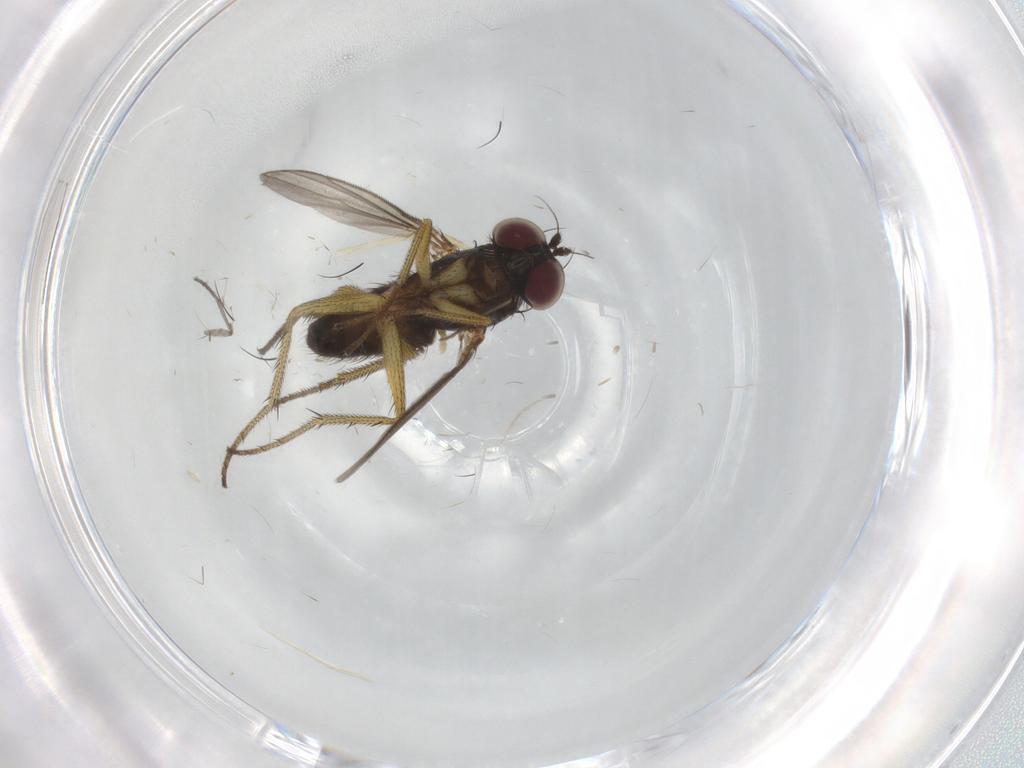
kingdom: Animalia
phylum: Arthropoda
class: Insecta
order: Diptera
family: Sciaridae
